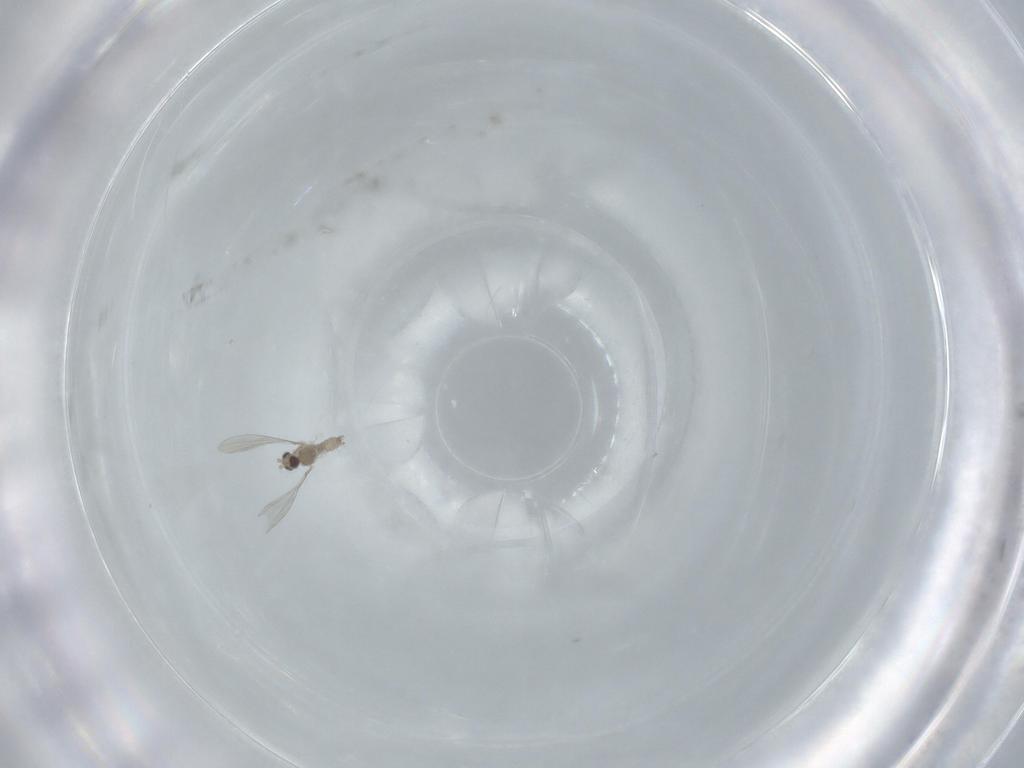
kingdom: Animalia
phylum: Arthropoda
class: Insecta
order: Diptera
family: Cecidomyiidae
